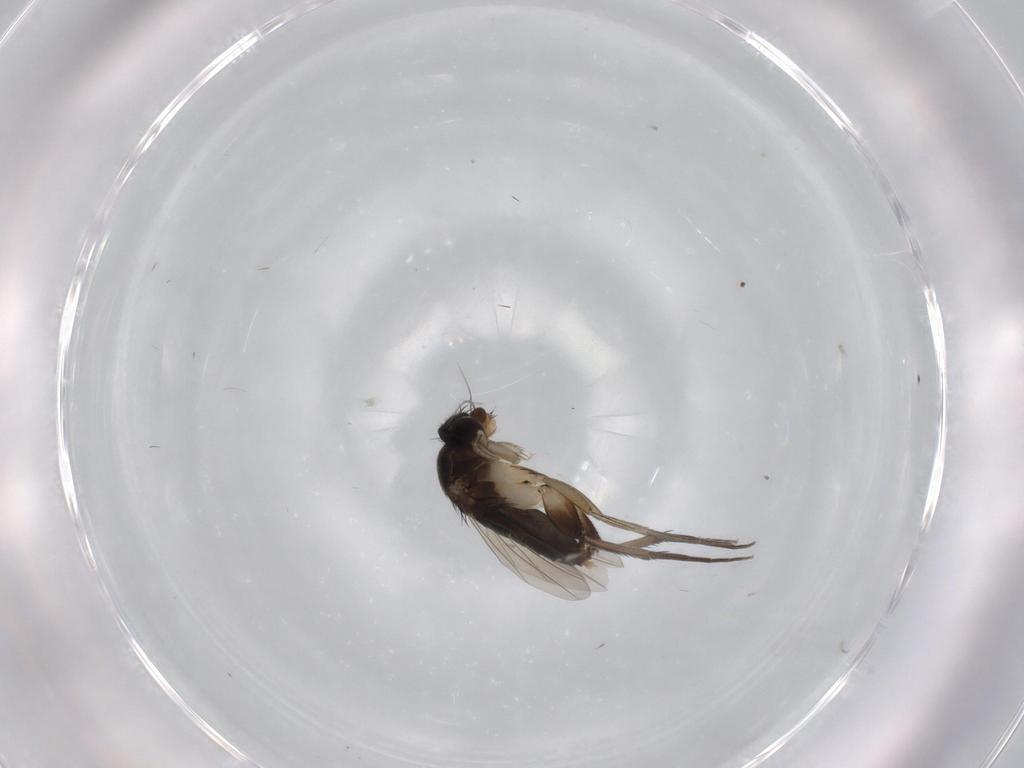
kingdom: Animalia
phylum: Arthropoda
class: Insecta
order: Diptera
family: Phoridae
